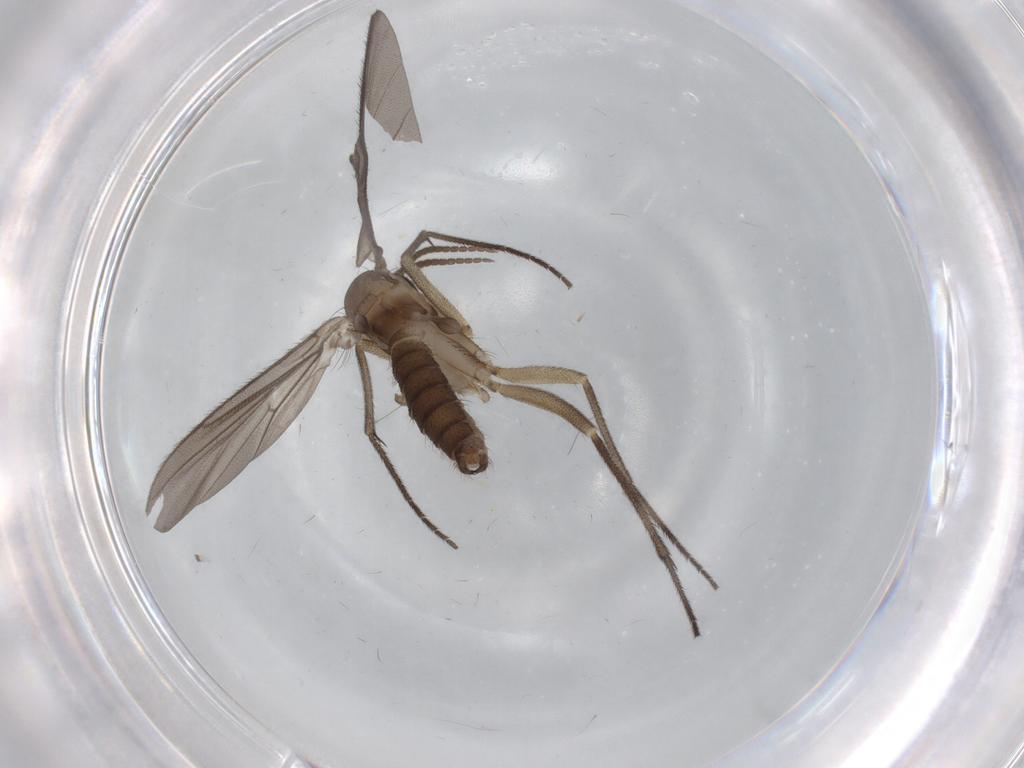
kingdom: Animalia
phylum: Arthropoda
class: Insecta
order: Diptera
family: Diadocidiidae
